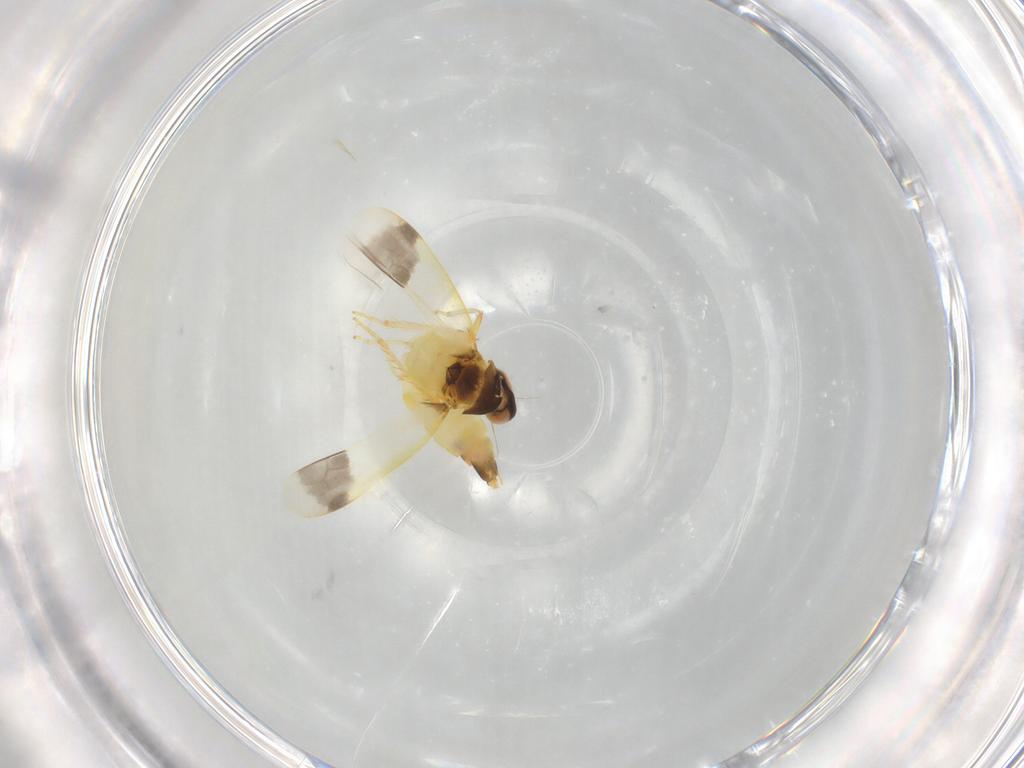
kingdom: Animalia
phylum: Arthropoda
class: Insecta
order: Hemiptera
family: Cicadellidae
